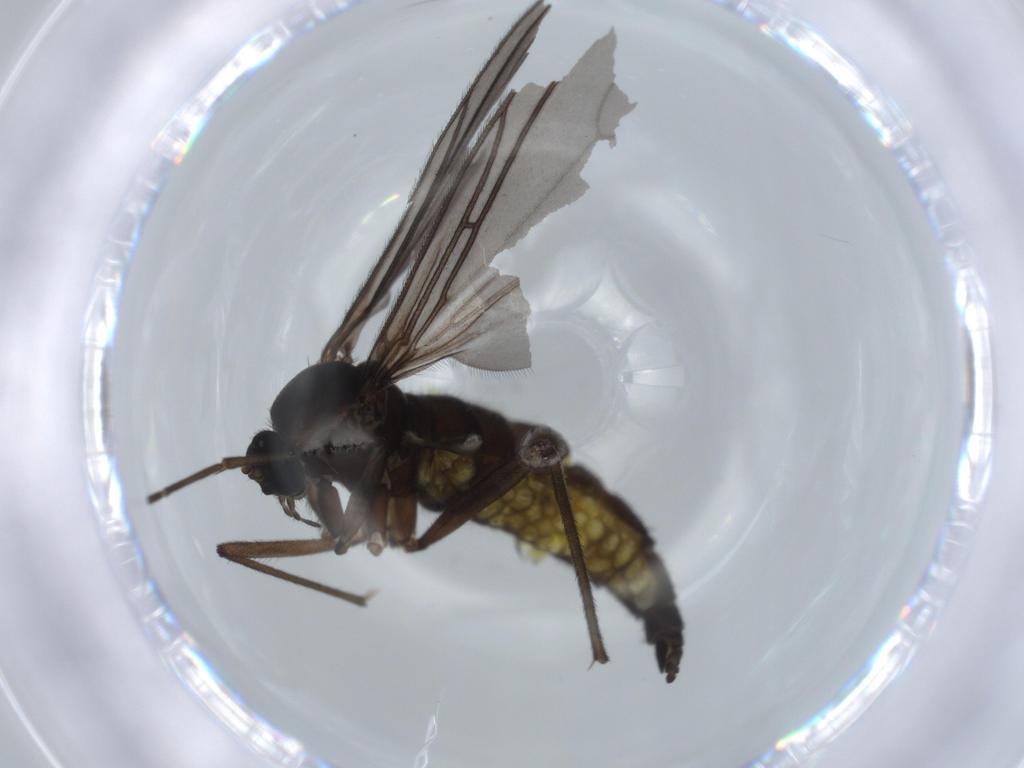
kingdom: Animalia
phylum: Arthropoda
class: Insecta
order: Diptera
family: Sciaridae
